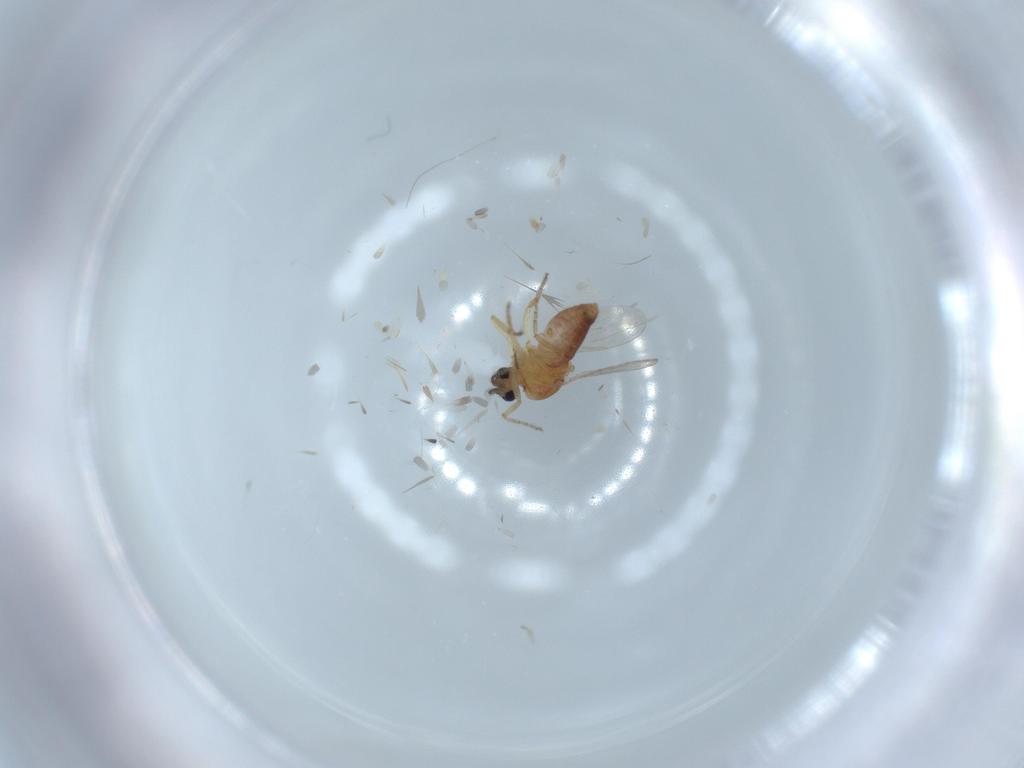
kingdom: Animalia
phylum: Arthropoda
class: Insecta
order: Diptera
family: Ceratopogonidae
